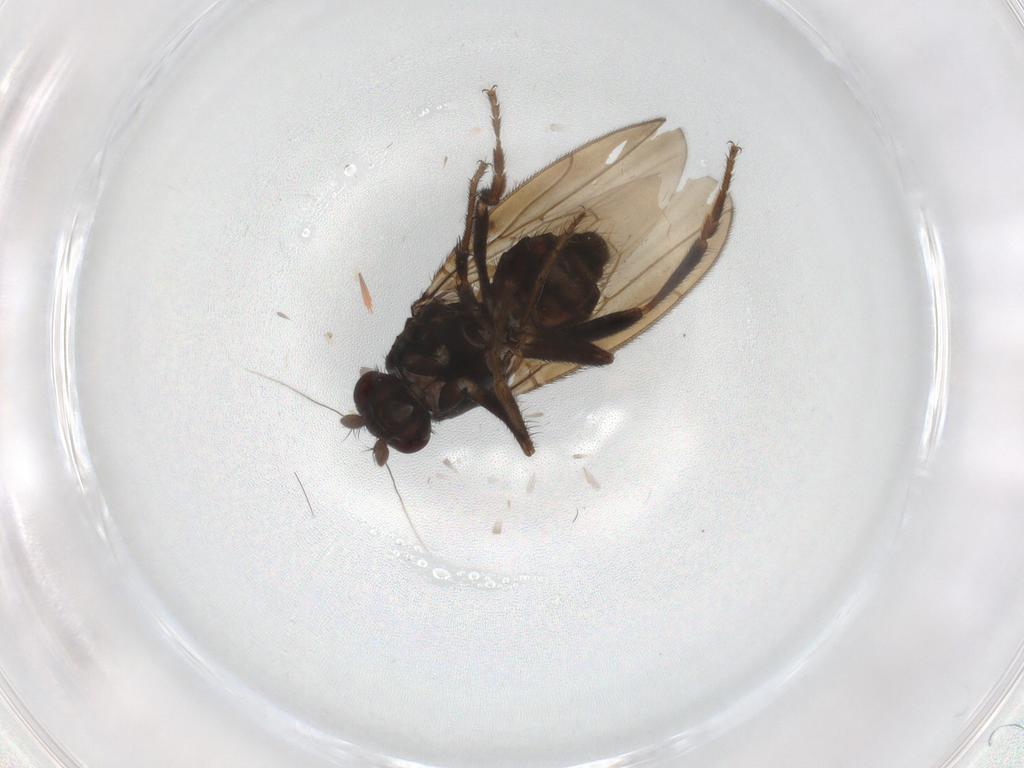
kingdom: Animalia
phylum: Arthropoda
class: Insecta
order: Diptera
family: Sphaeroceridae
